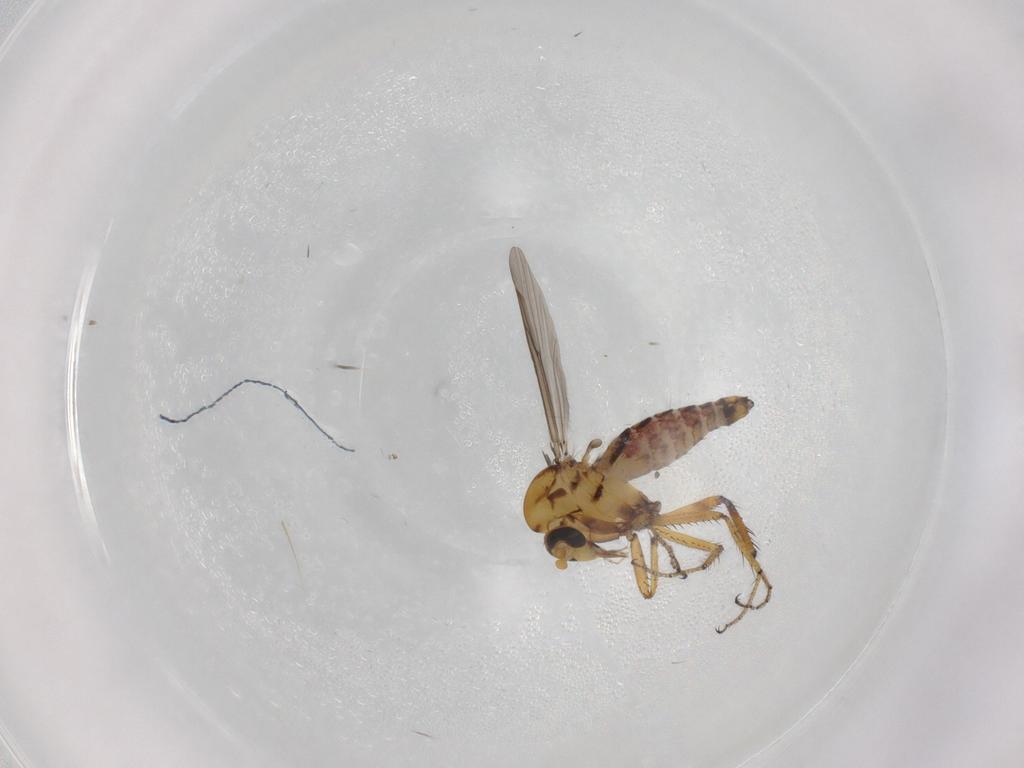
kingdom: Animalia
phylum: Arthropoda
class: Insecta
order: Diptera
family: Ceratopogonidae
